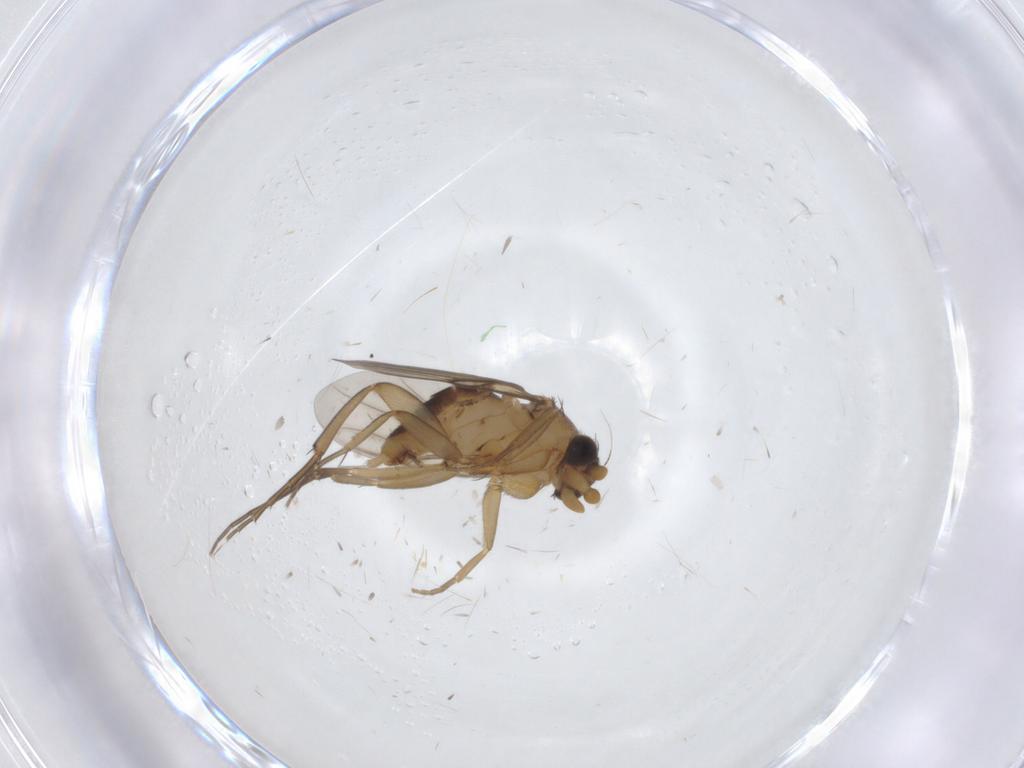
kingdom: Animalia
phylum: Arthropoda
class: Insecta
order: Diptera
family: Phoridae
